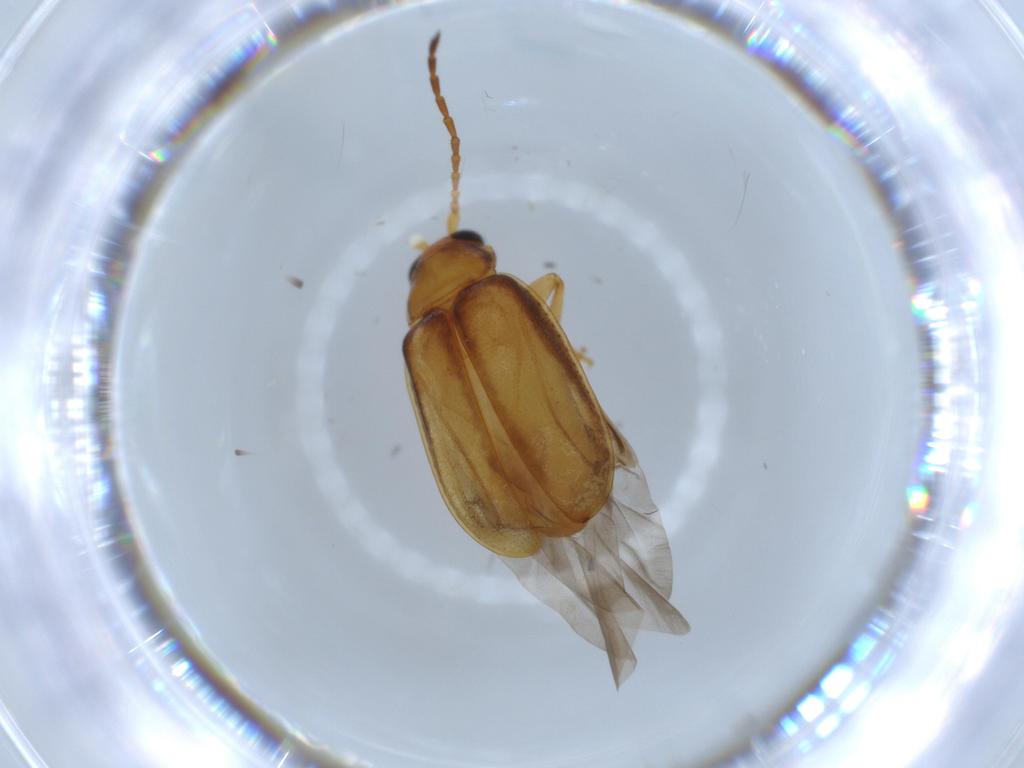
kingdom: Animalia
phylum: Arthropoda
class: Insecta
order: Coleoptera
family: Chrysomelidae
